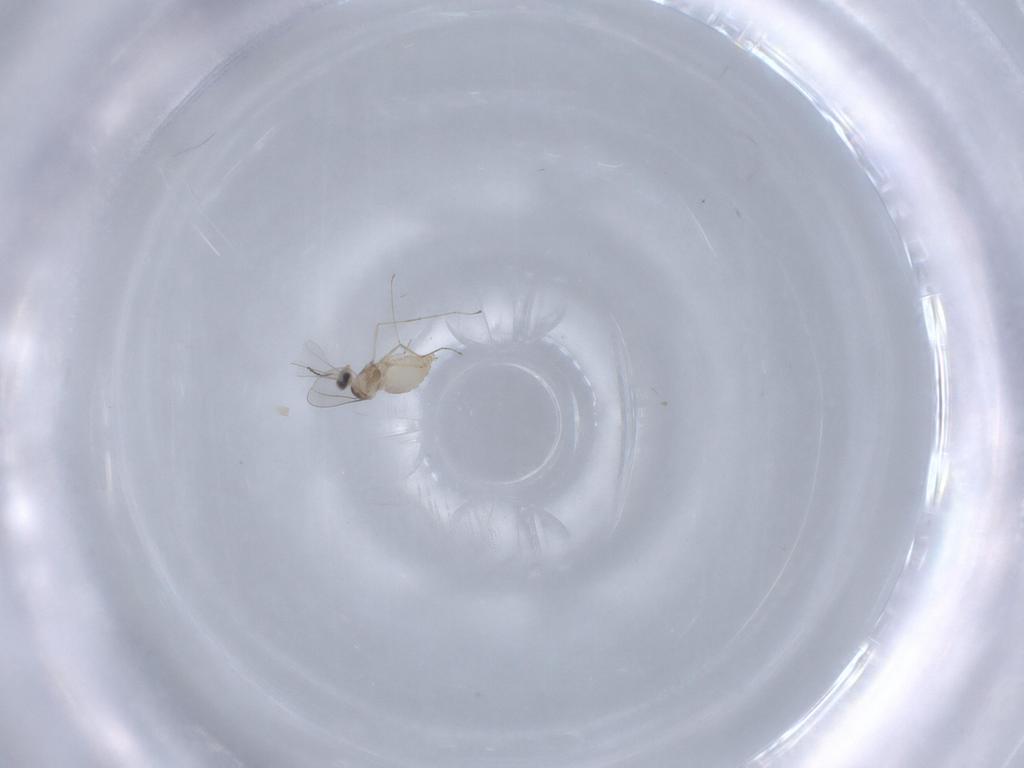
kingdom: Animalia
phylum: Arthropoda
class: Insecta
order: Diptera
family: Cecidomyiidae
